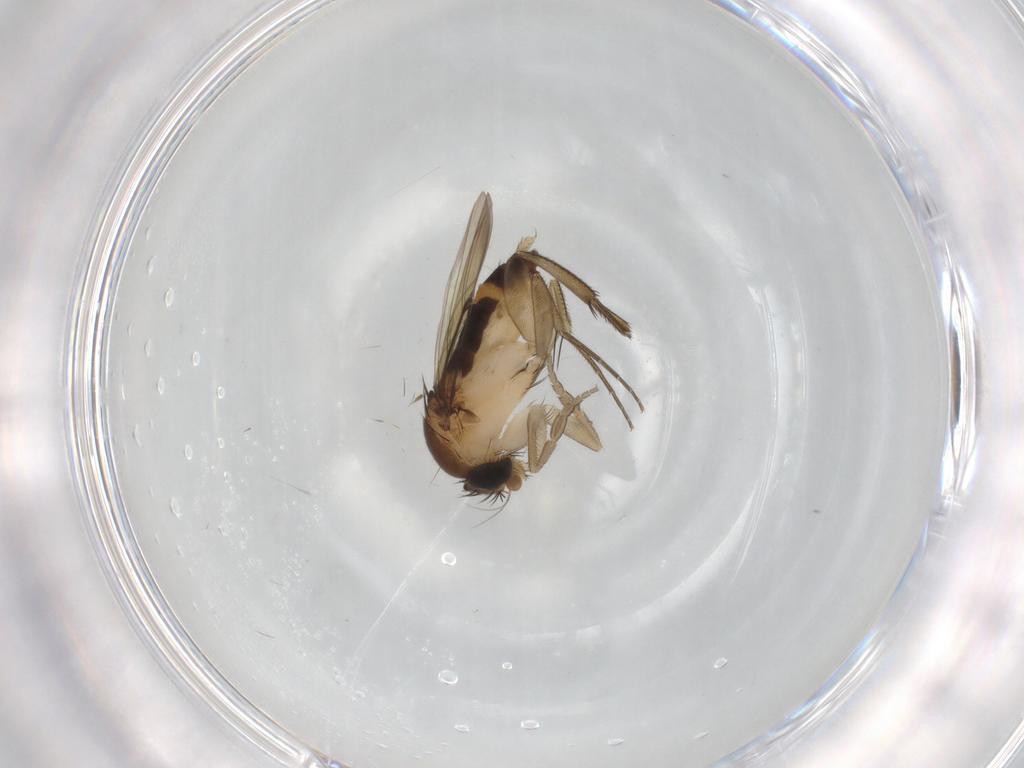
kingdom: Animalia
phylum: Arthropoda
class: Insecta
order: Diptera
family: Phoridae
